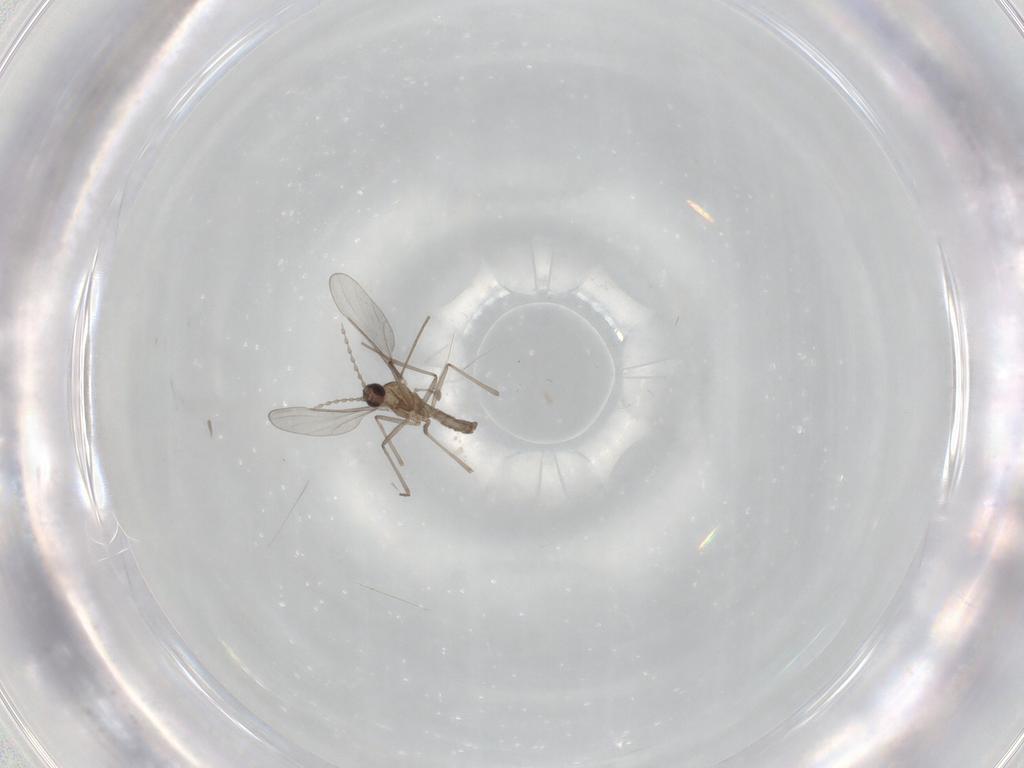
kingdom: Animalia
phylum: Arthropoda
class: Insecta
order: Diptera
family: Cecidomyiidae
